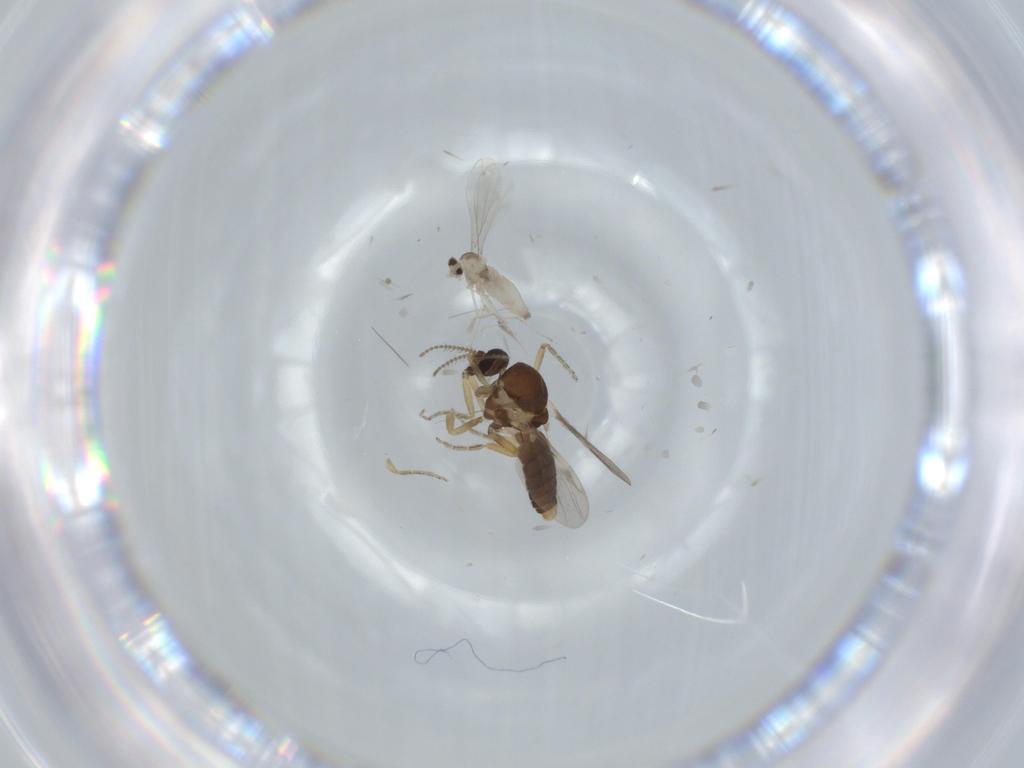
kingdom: Animalia
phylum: Arthropoda
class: Insecta
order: Diptera
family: Cecidomyiidae
